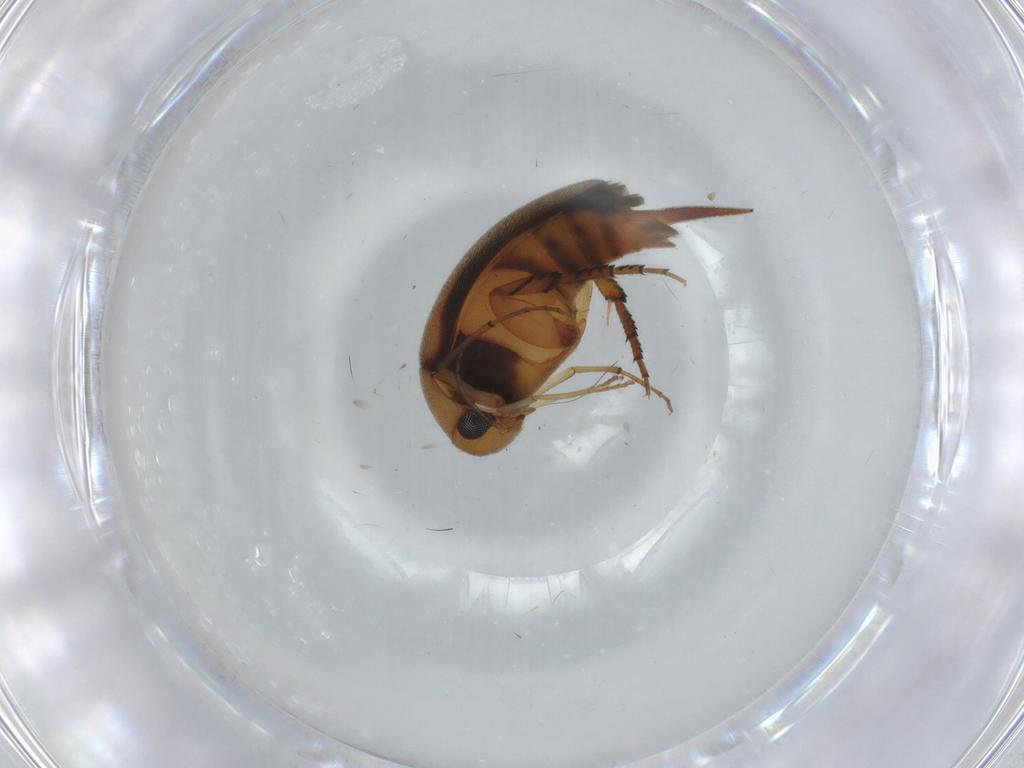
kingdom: Animalia
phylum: Arthropoda
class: Insecta
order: Coleoptera
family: Mordellidae
